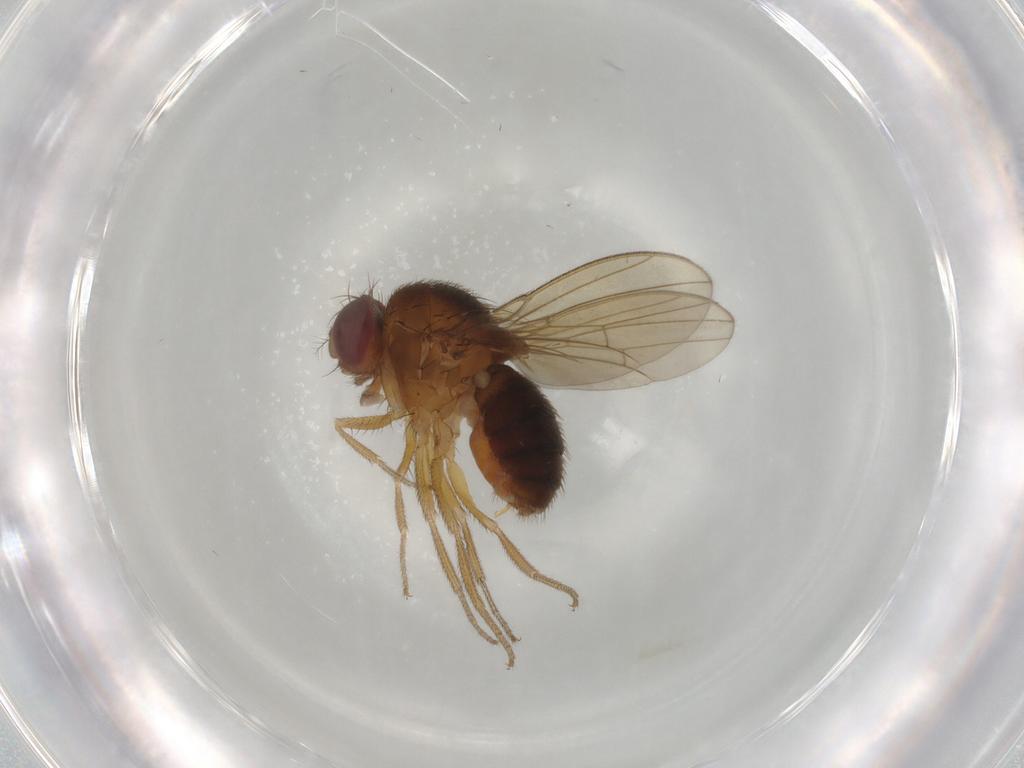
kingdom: Animalia
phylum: Arthropoda
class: Insecta
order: Diptera
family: Drosophilidae
